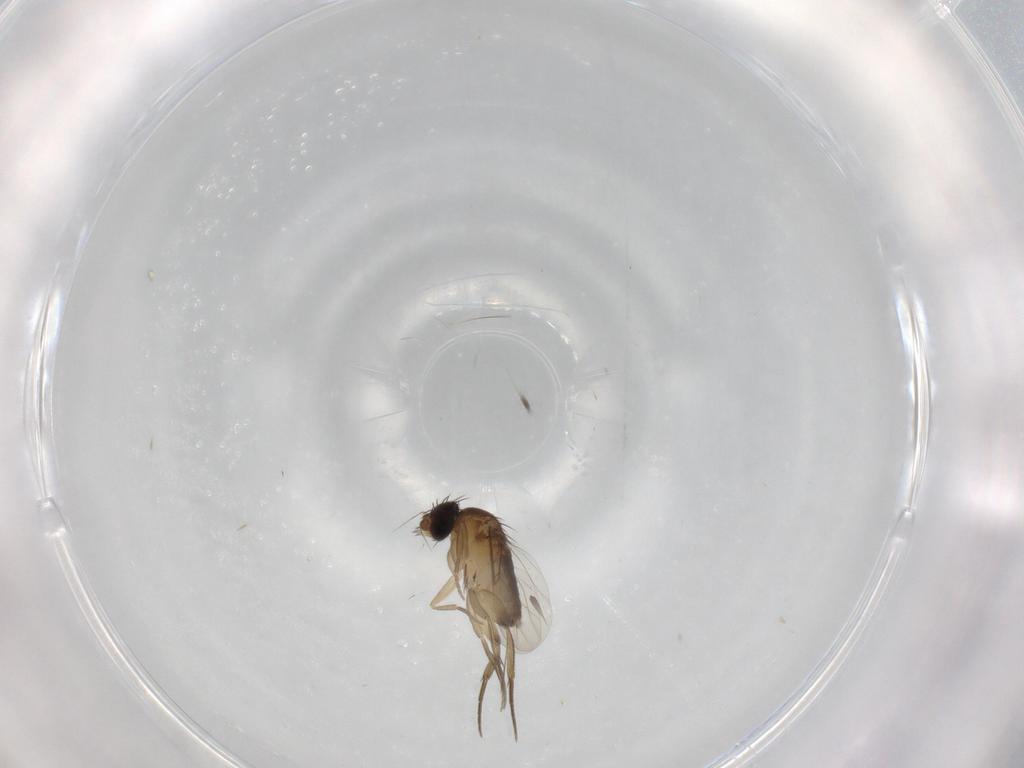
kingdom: Animalia
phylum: Arthropoda
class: Insecta
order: Diptera
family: Phoridae
